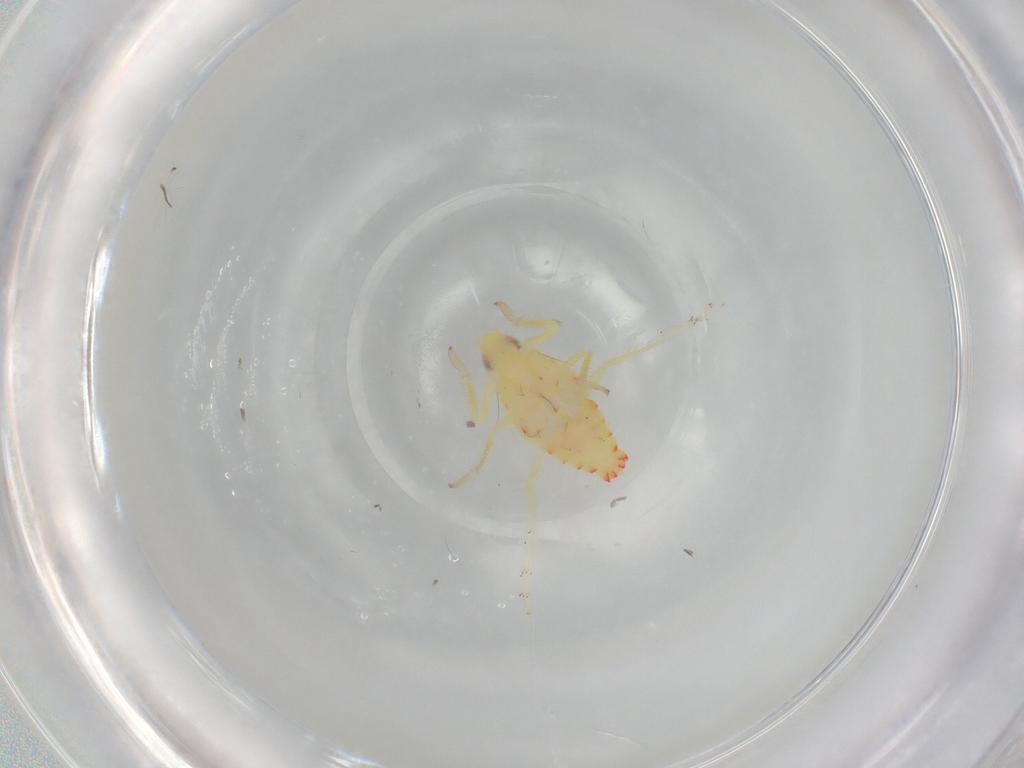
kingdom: Animalia
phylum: Arthropoda
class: Insecta
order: Hemiptera
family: Tropiduchidae
